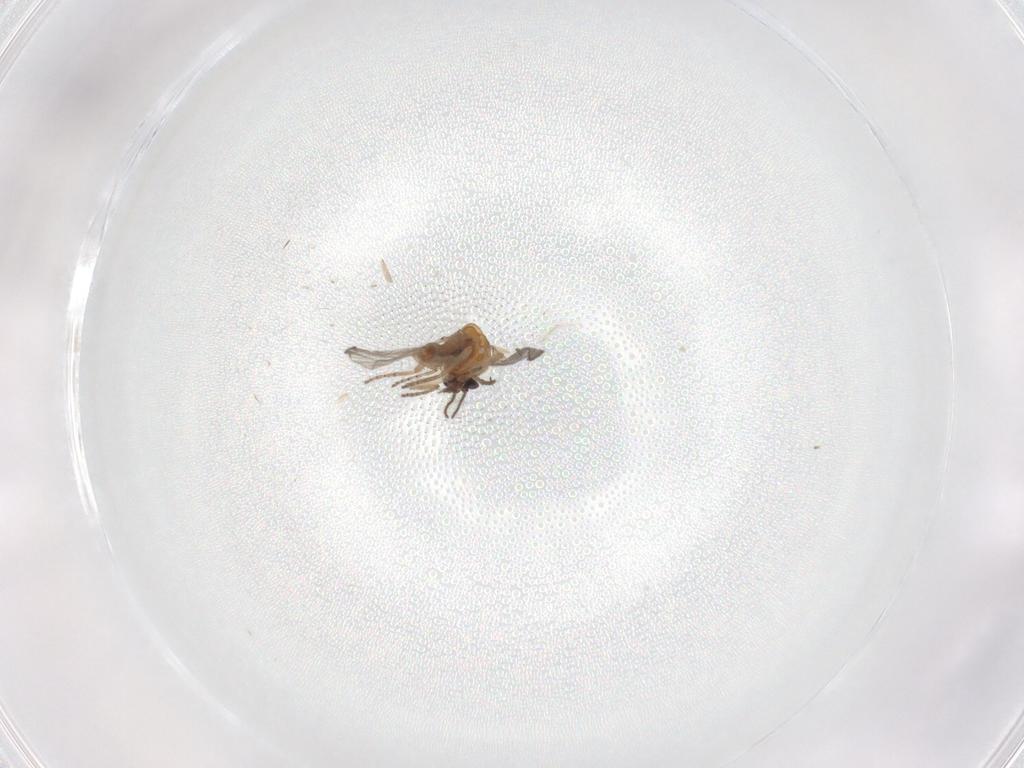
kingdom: Animalia
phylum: Arthropoda
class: Insecta
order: Diptera
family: Ceratopogonidae
